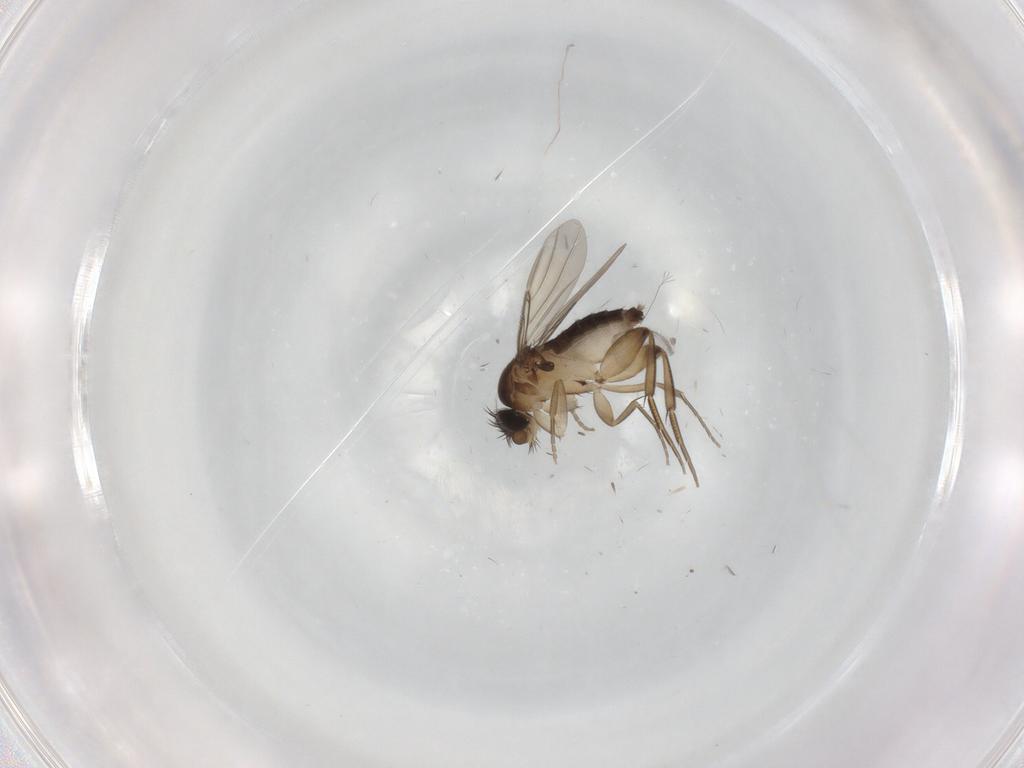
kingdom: Animalia
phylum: Arthropoda
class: Insecta
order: Diptera
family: Phoridae
